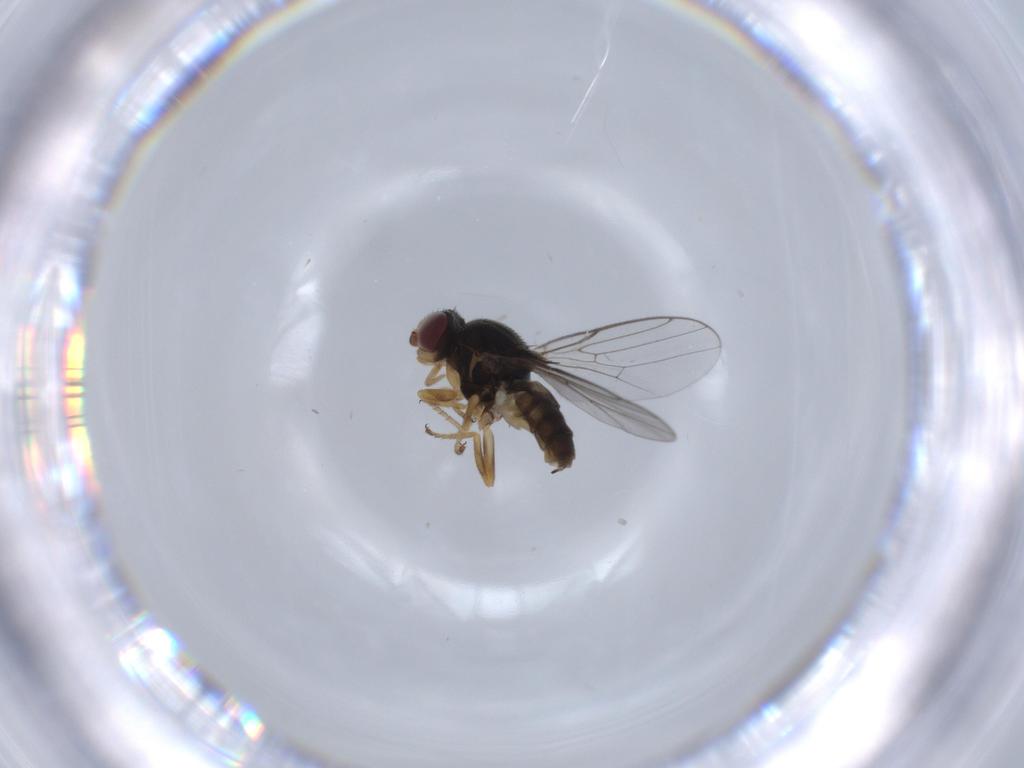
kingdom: Animalia
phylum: Arthropoda
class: Insecta
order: Diptera
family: Chloropidae
